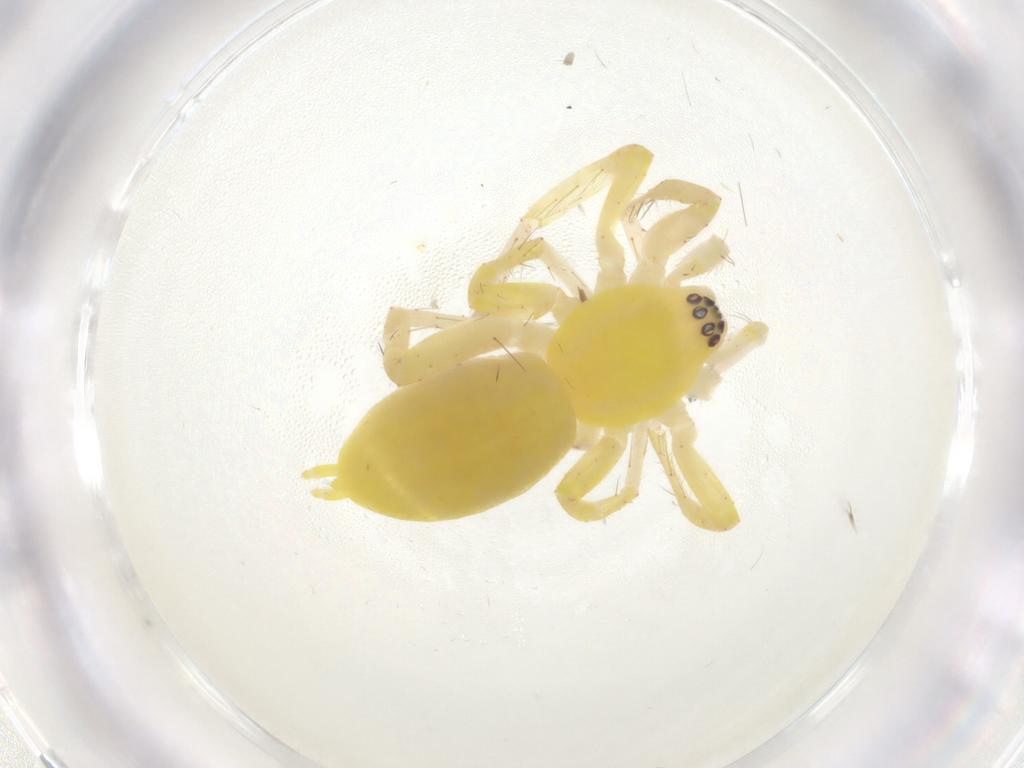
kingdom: Animalia
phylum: Arthropoda
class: Arachnida
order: Araneae
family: Anyphaenidae
